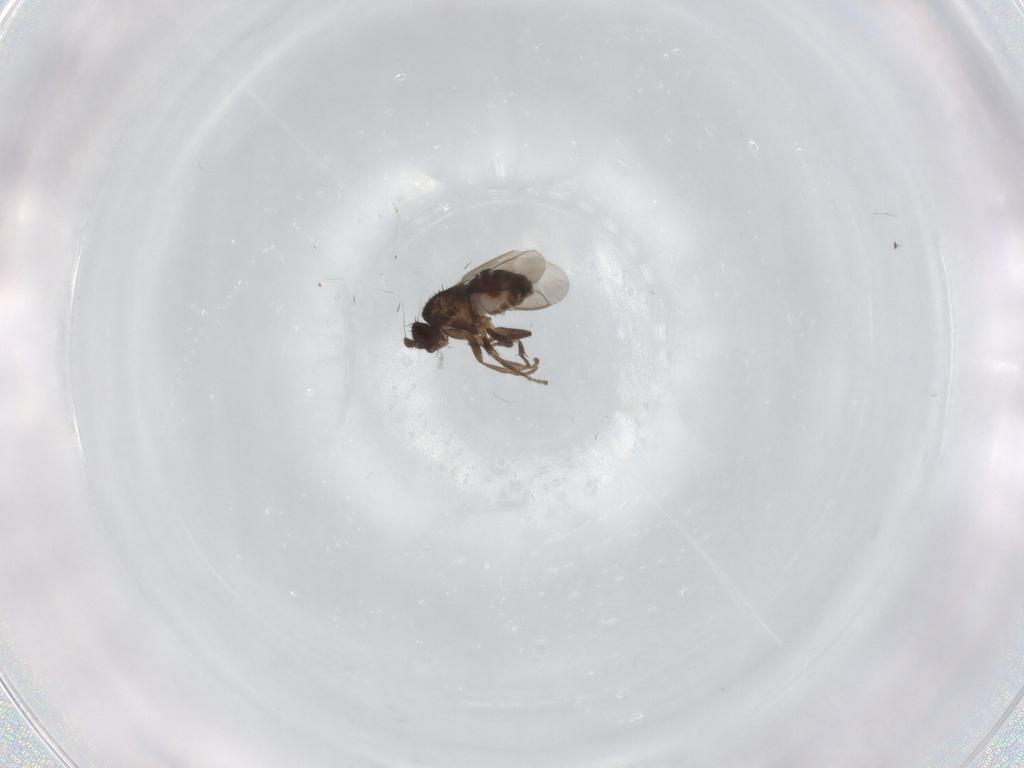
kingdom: Animalia
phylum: Arthropoda
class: Insecta
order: Diptera
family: Sphaeroceridae
